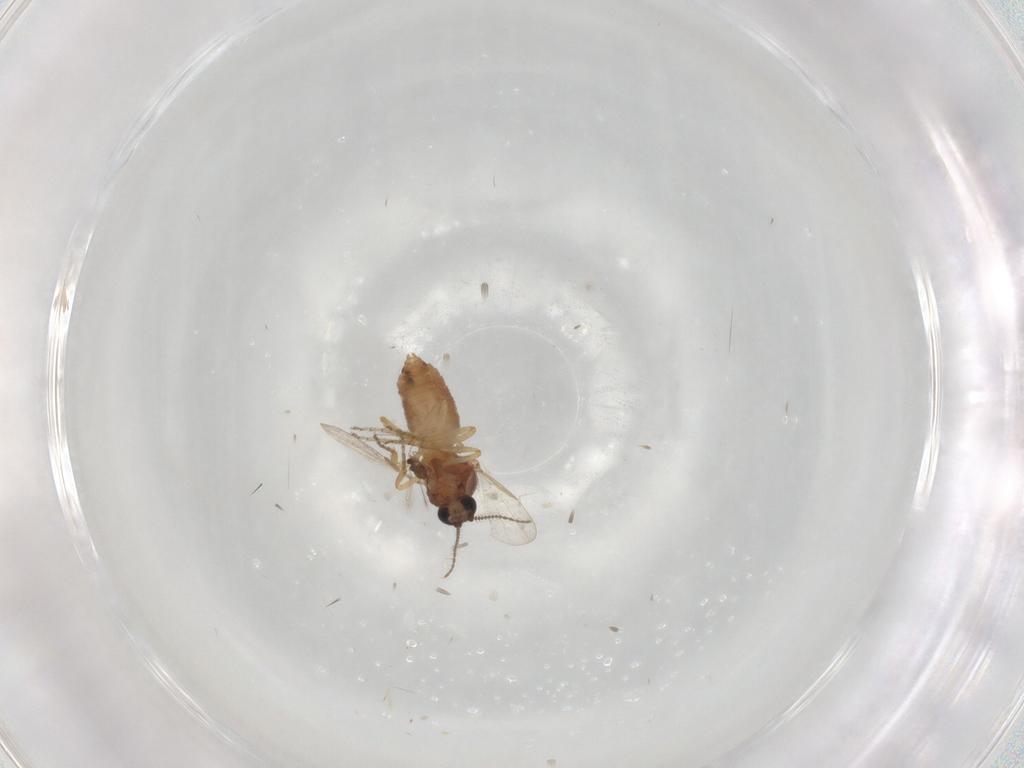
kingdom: Animalia
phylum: Arthropoda
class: Insecta
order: Diptera
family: Ceratopogonidae
